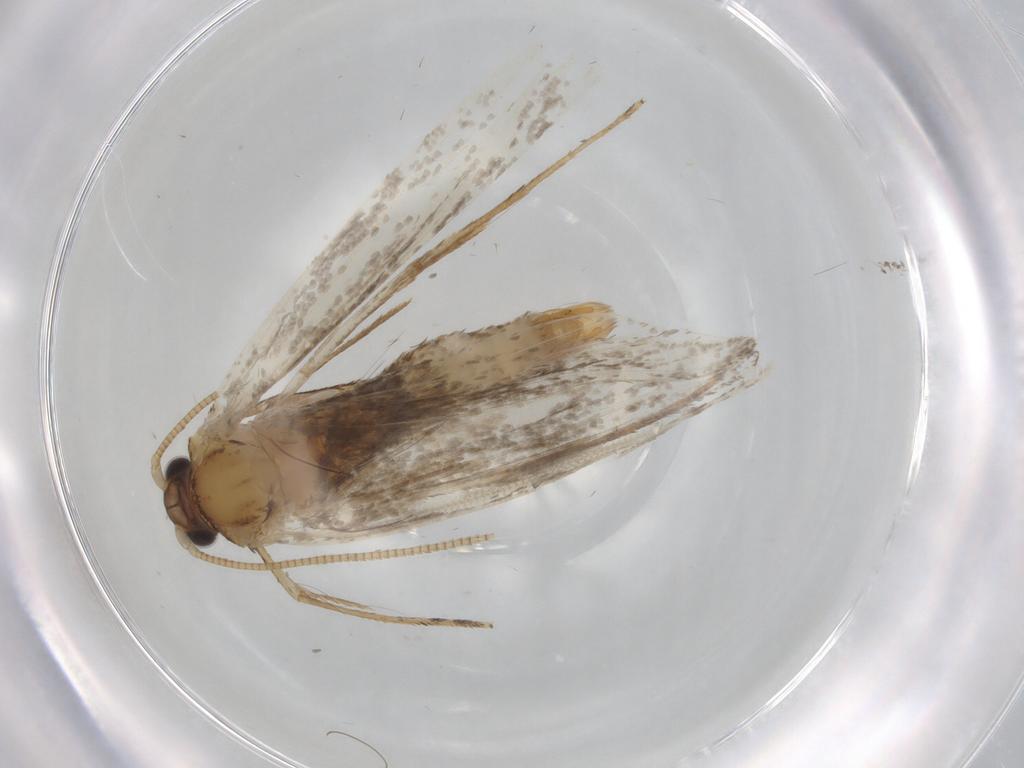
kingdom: Animalia
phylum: Arthropoda
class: Insecta
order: Lepidoptera
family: Tineidae
